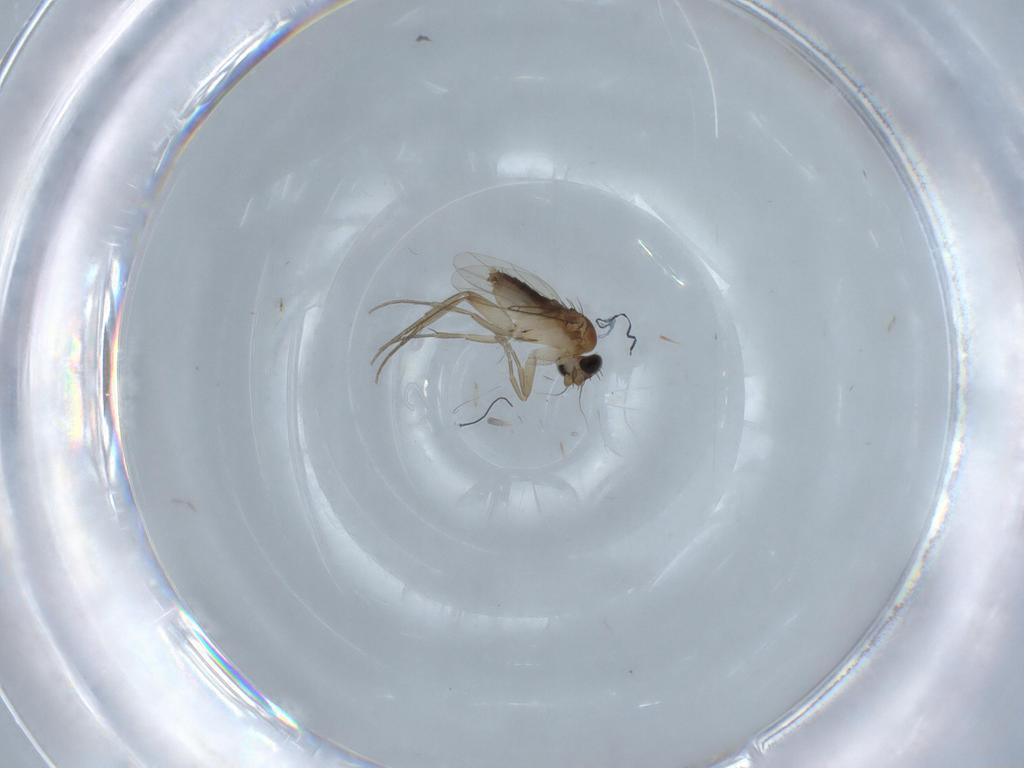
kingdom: Animalia
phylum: Arthropoda
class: Insecta
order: Diptera
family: Phoridae
